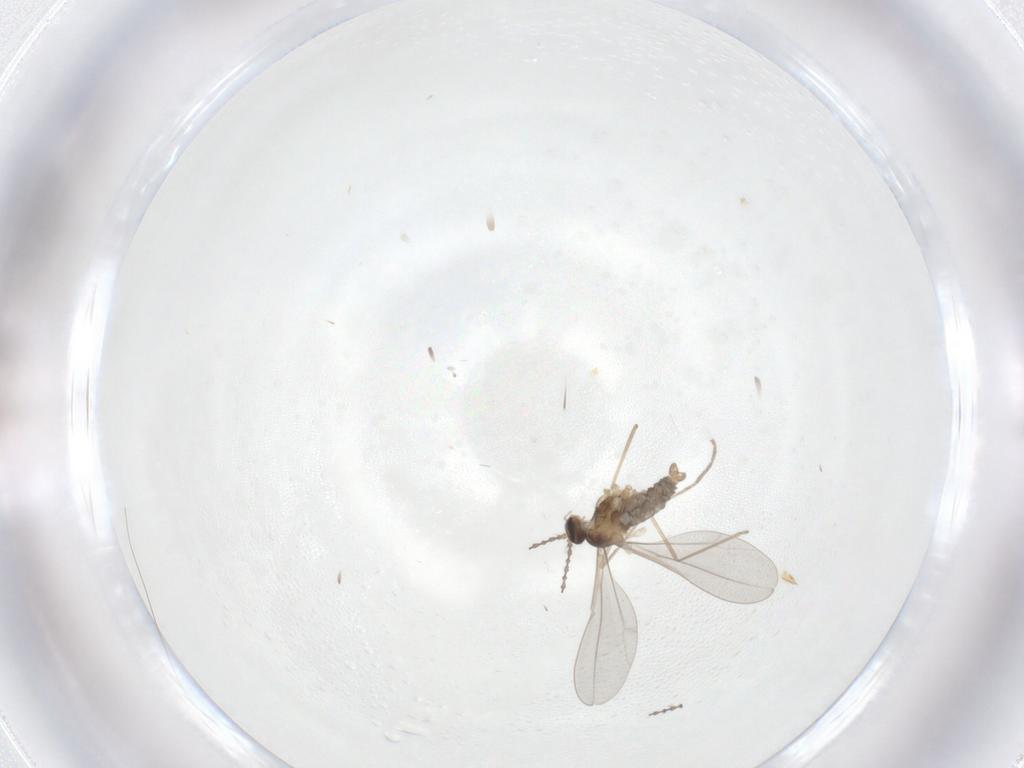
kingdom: Animalia
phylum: Arthropoda
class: Insecta
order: Diptera
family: Cecidomyiidae
